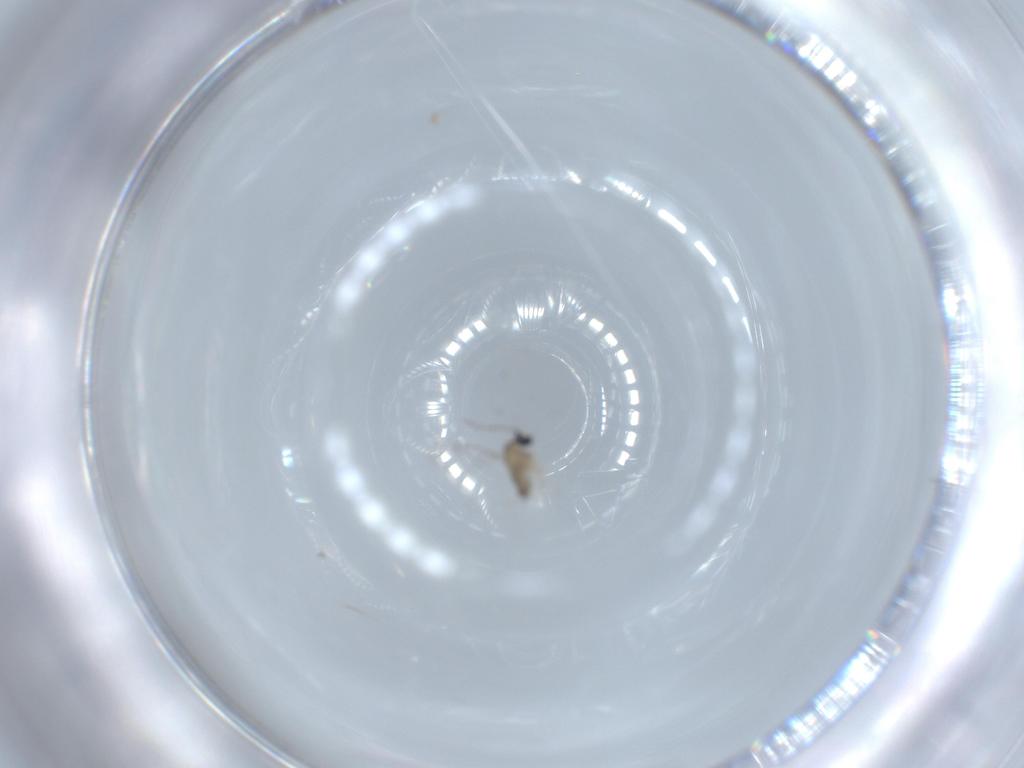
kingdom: Animalia
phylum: Arthropoda
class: Insecta
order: Diptera
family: Cecidomyiidae
